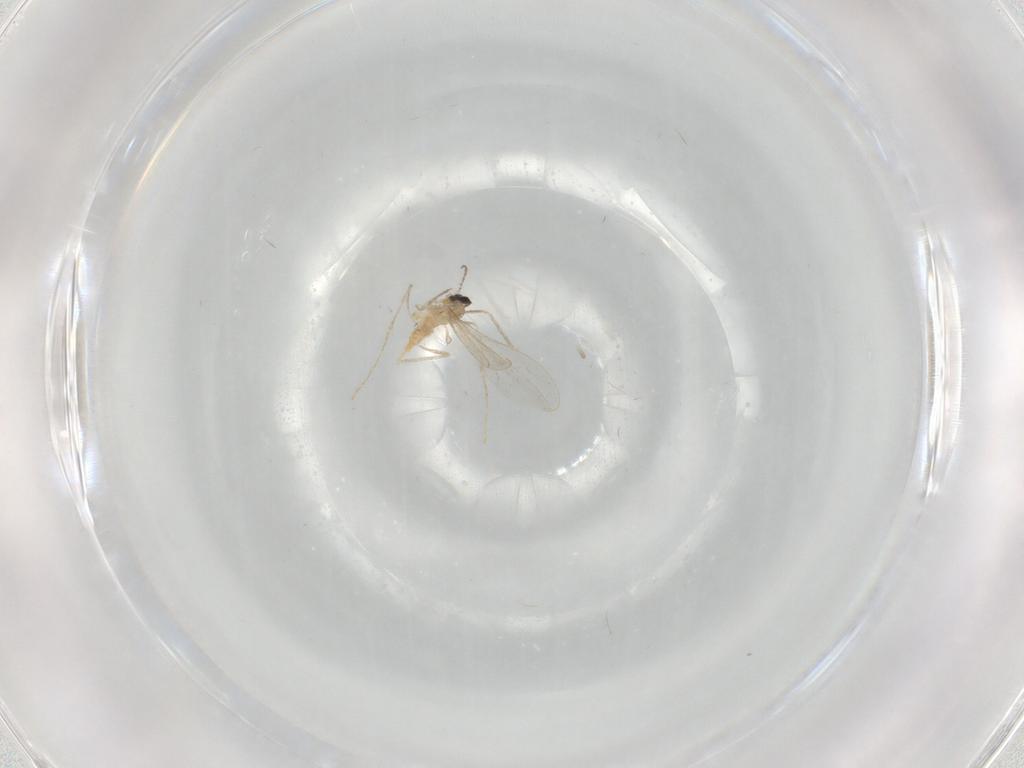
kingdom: Animalia
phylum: Arthropoda
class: Insecta
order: Diptera
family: Cecidomyiidae
